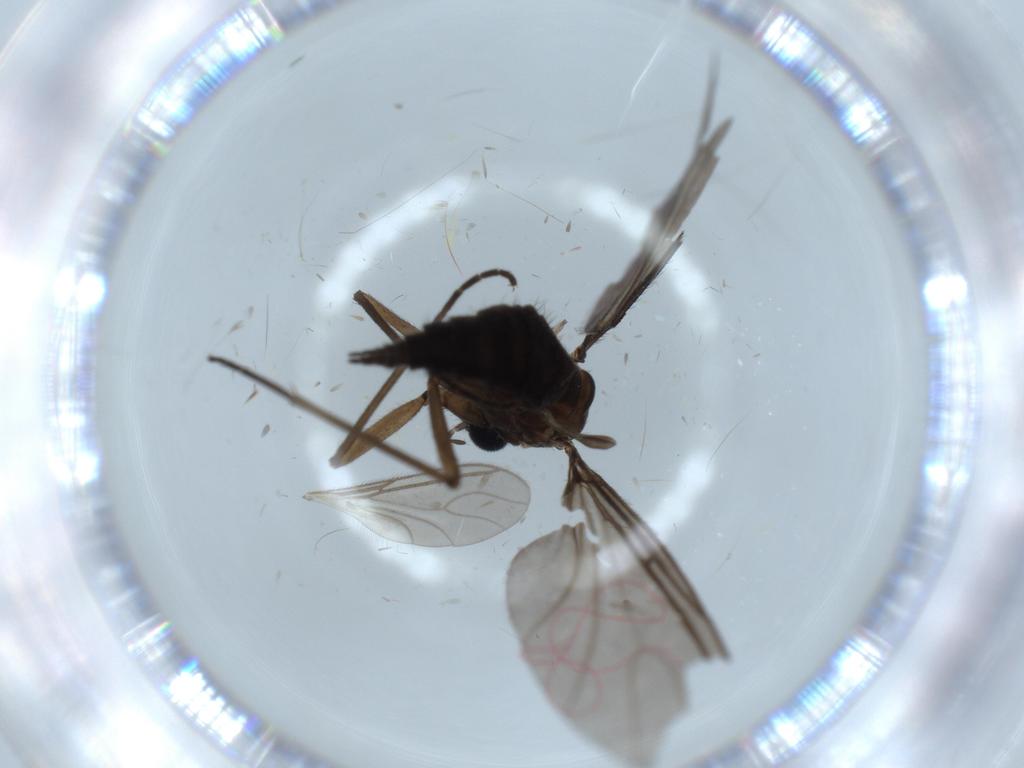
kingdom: Animalia
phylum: Arthropoda
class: Insecta
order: Diptera
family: Sciaridae
